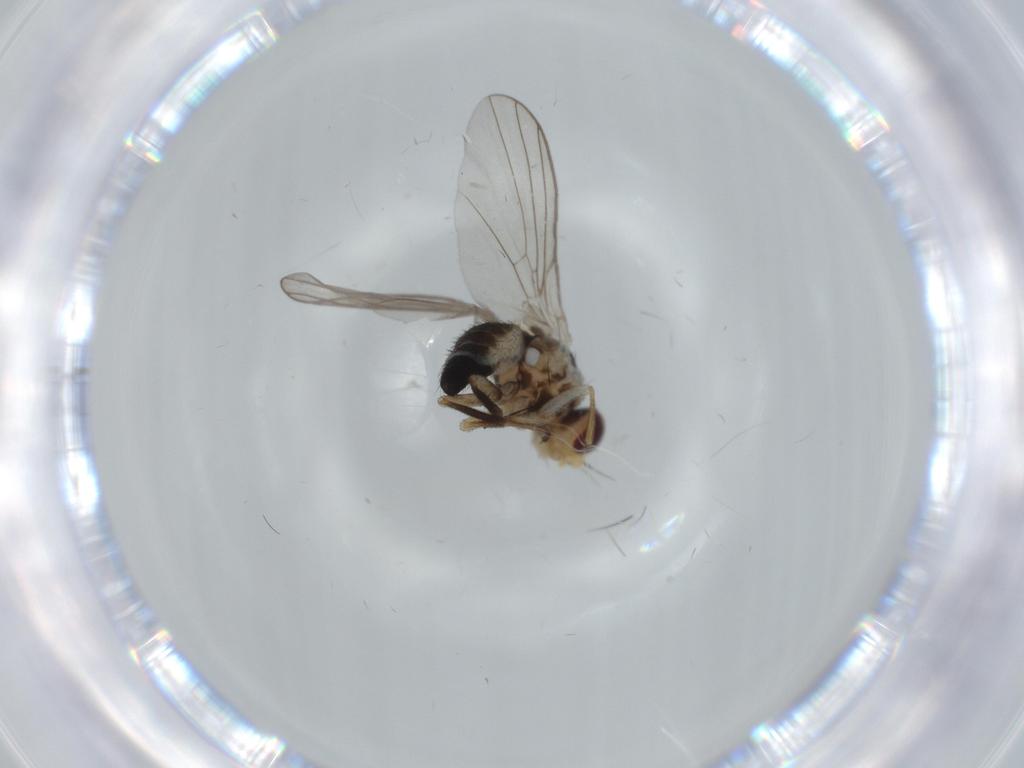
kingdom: Animalia
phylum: Arthropoda
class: Insecta
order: Diptera
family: Agromyzidae
